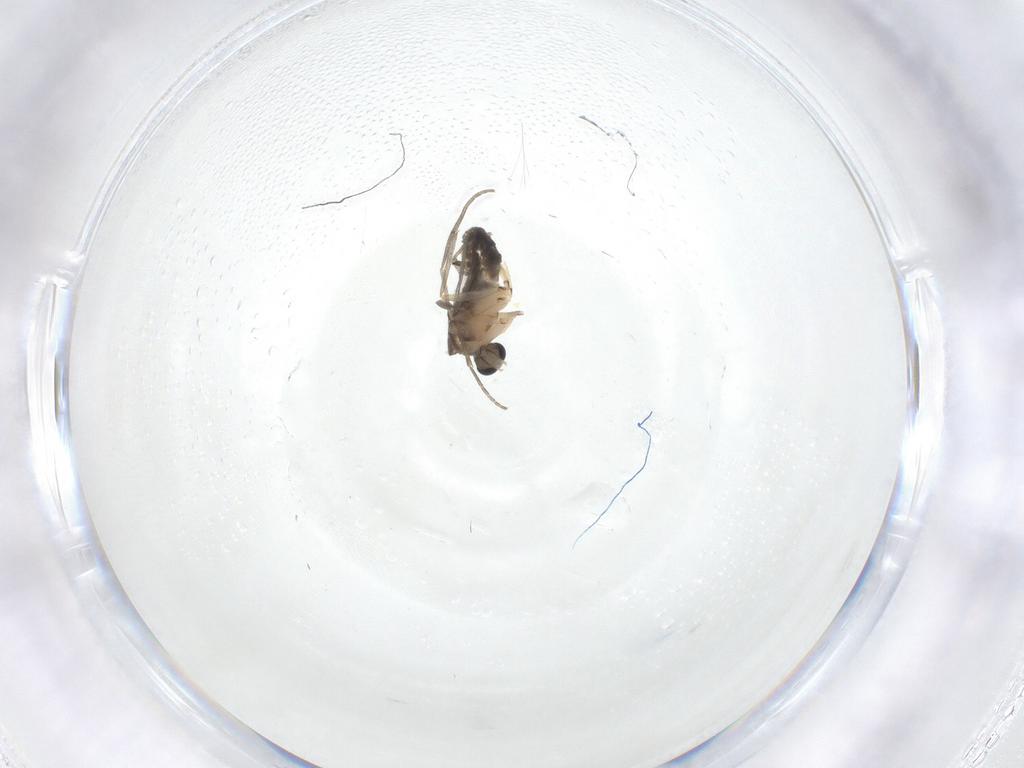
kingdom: Animalia
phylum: Arthropoda
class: Insecta
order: Diptera
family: Sciaridae
